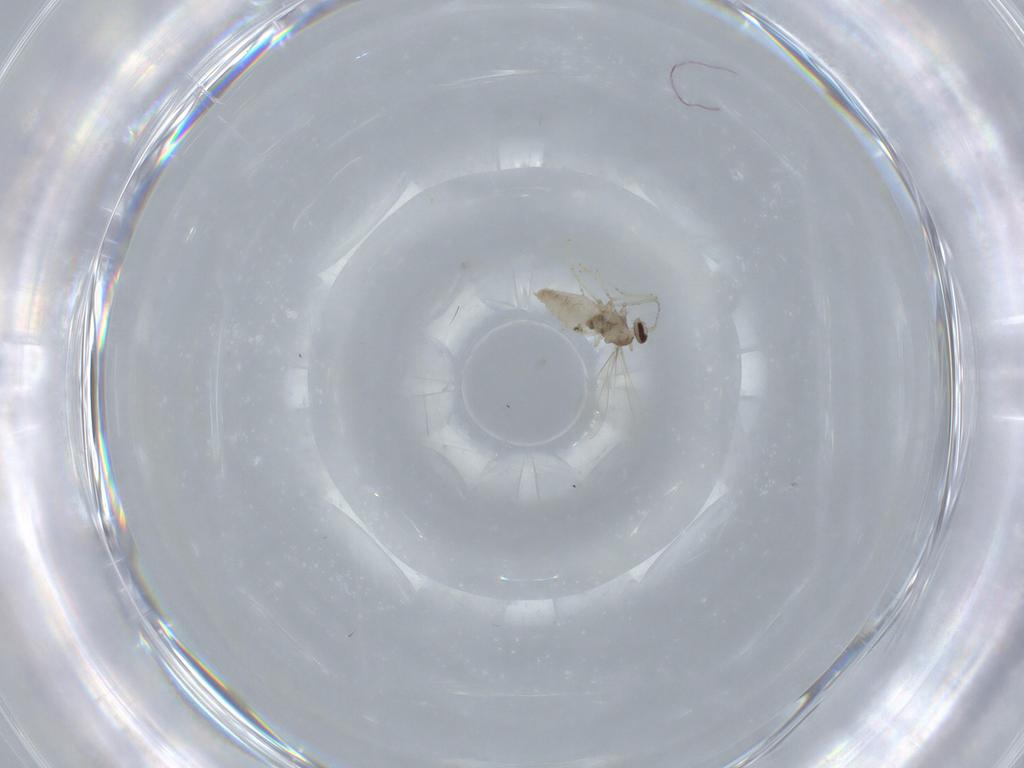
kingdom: Animalia
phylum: Arthropoda
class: Insecta
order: Diptera
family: Cecidomyiidae
